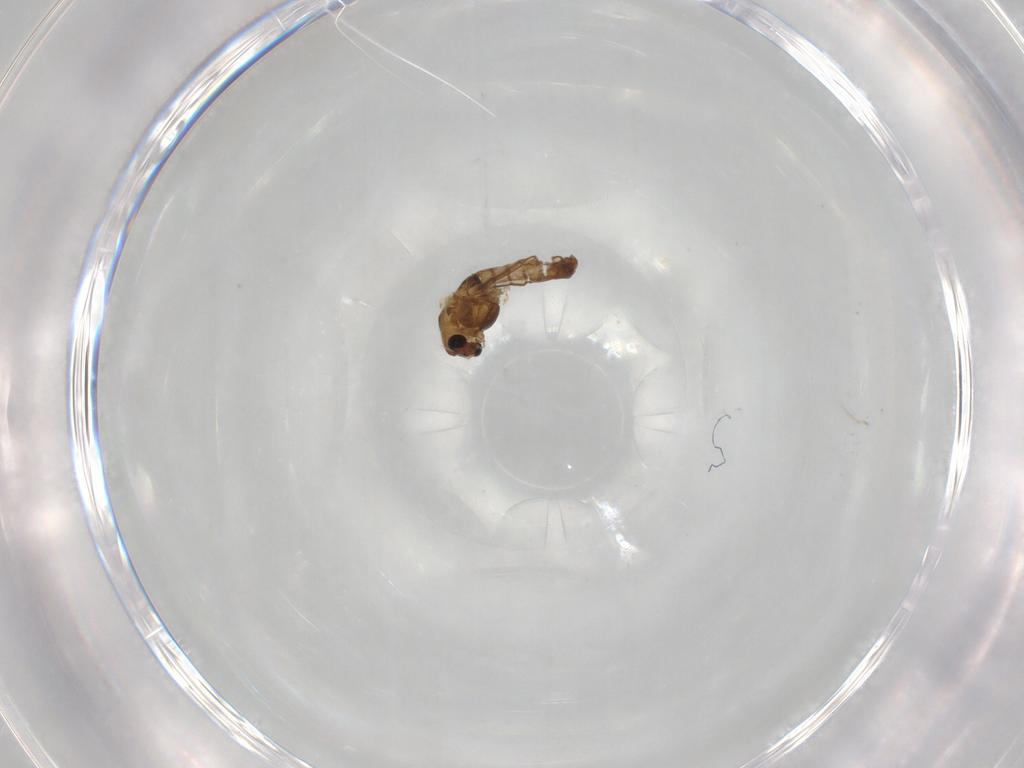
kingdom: Animalia
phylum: Arthropoda
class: Insecta
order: Diptera
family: Chironomidae
